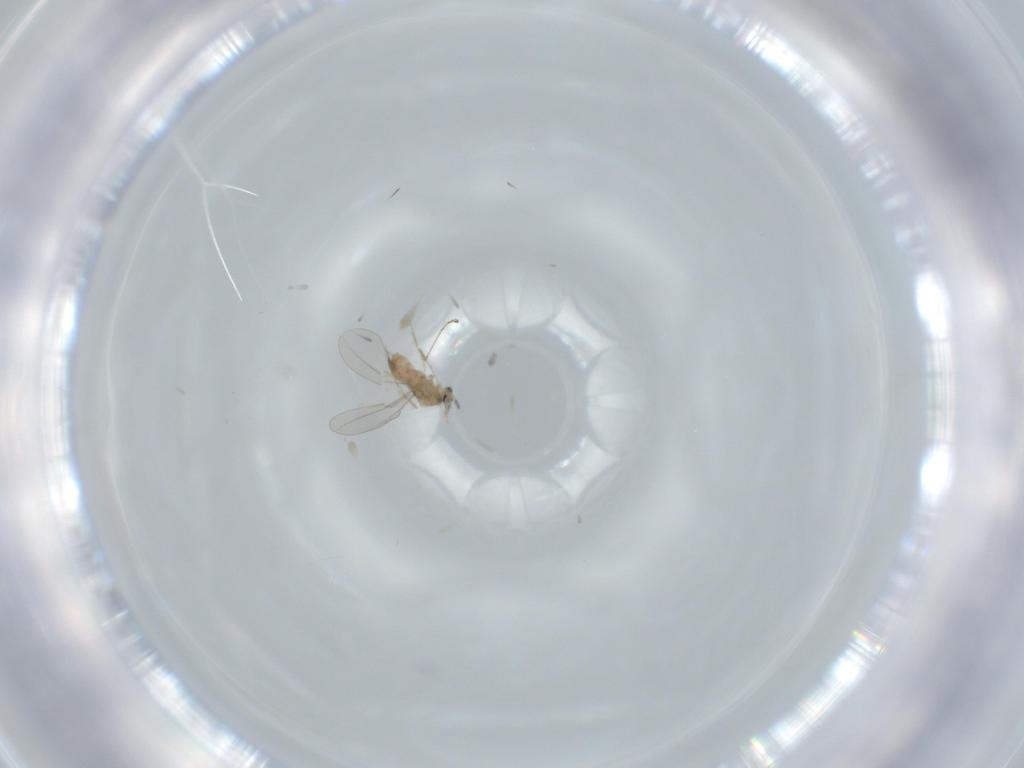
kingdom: Animalia
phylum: Arthropoda
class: Insecta
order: Diptera
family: Cecidomyiidae
